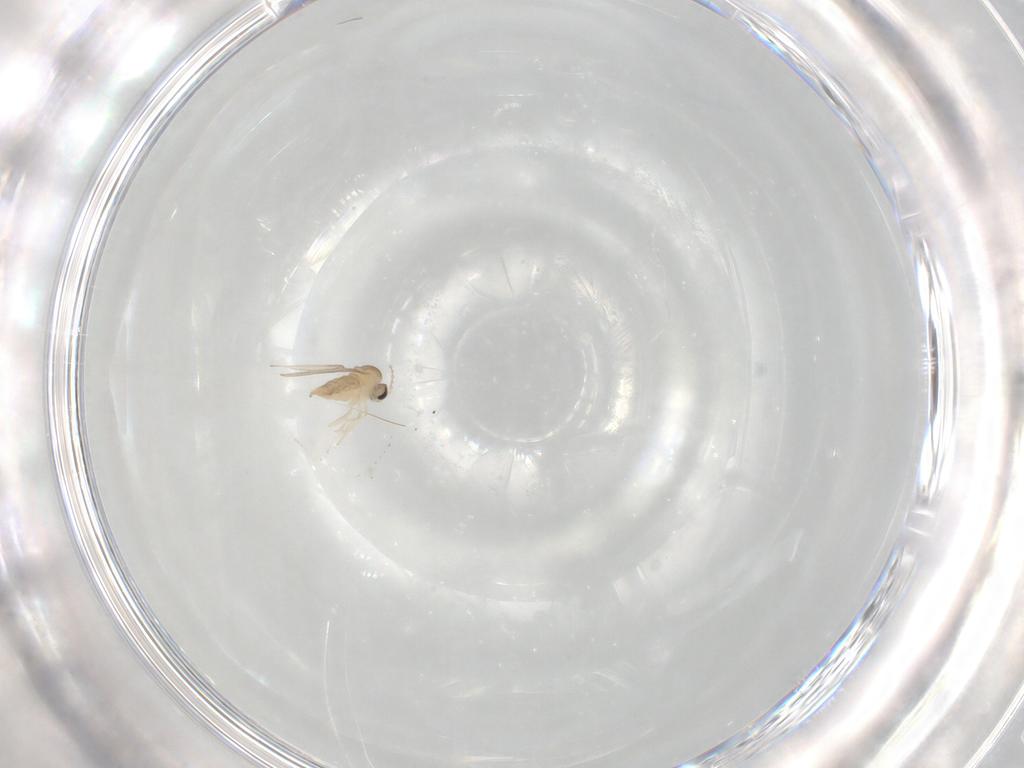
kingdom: Animalia
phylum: Arthropoda
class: Insecta
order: Diptera
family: Cecidomyiidae
